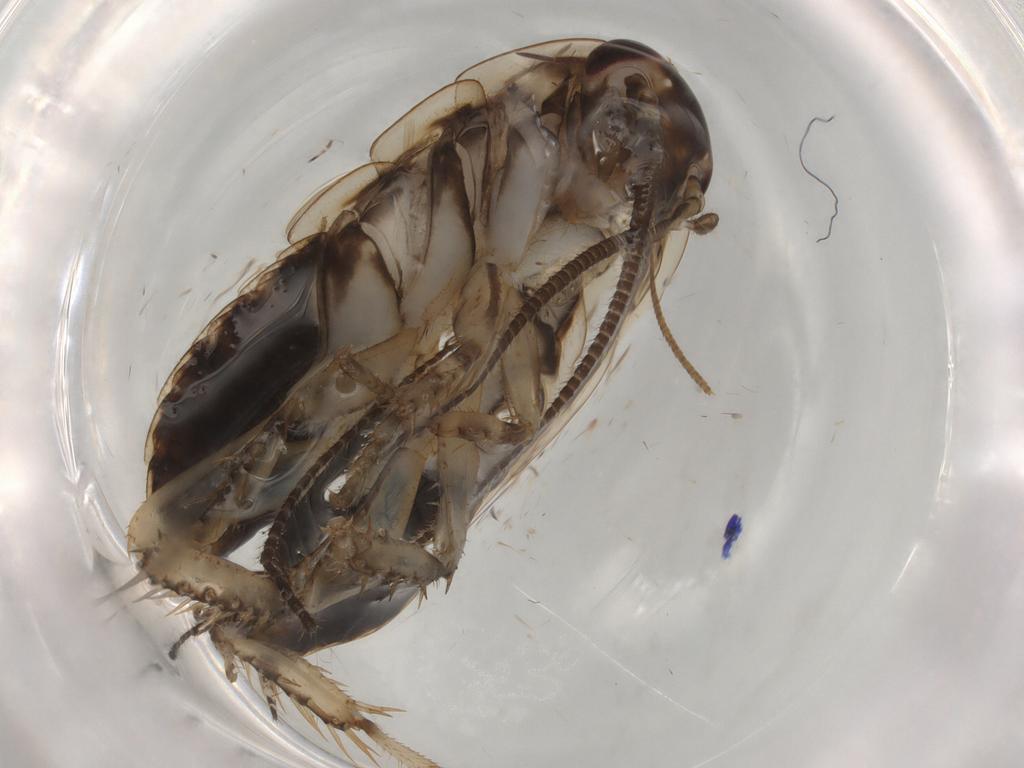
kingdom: Animalia
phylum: Arthropoda
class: Insecta
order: Blattodea
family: Blaberidae
